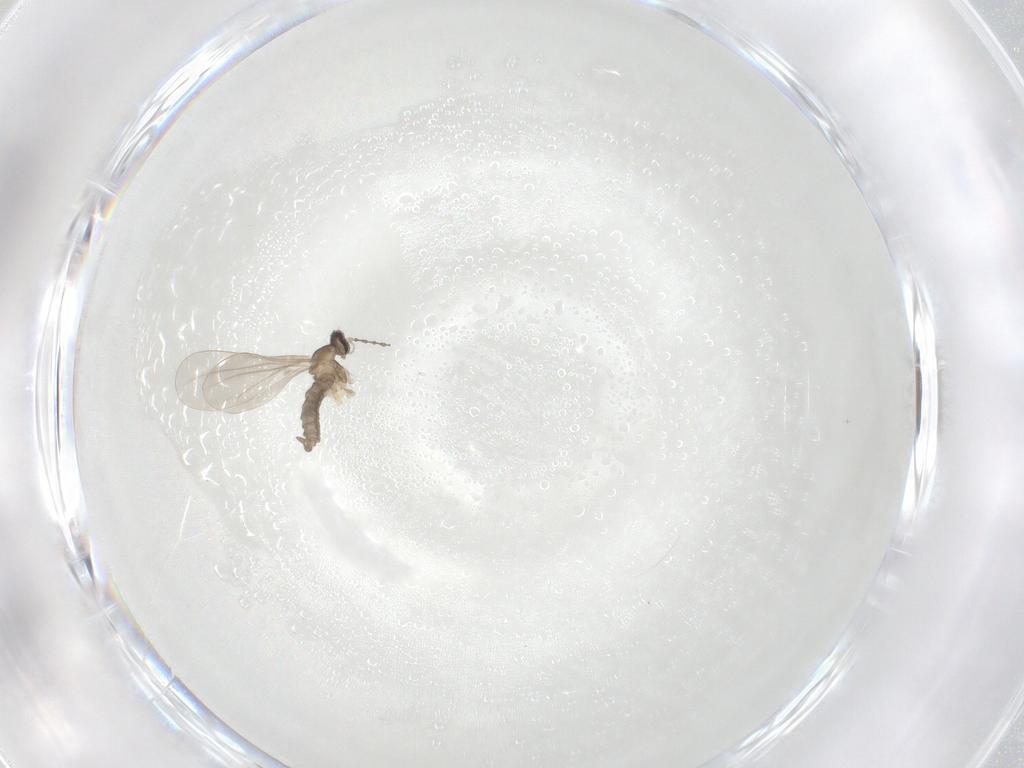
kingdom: Animalia
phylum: Arthropoda
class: Insecta
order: Diptera
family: Cecidomyiidae
